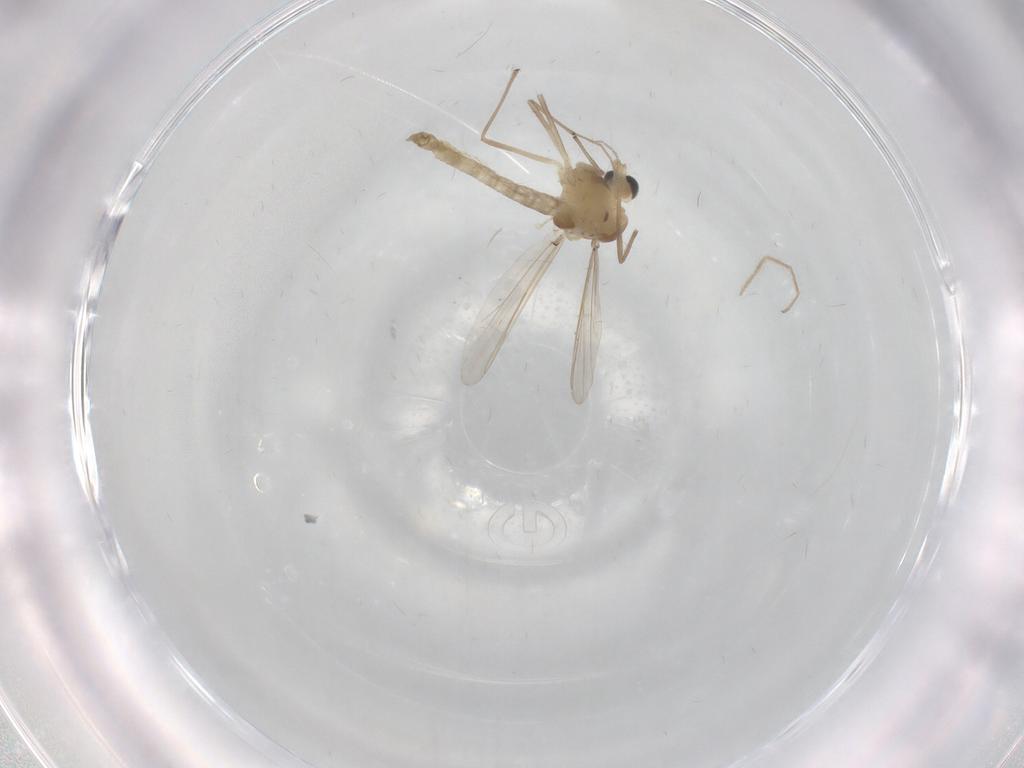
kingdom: Animalia
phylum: Arthropoda
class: Insecta
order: Diptera
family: Chironomidae
